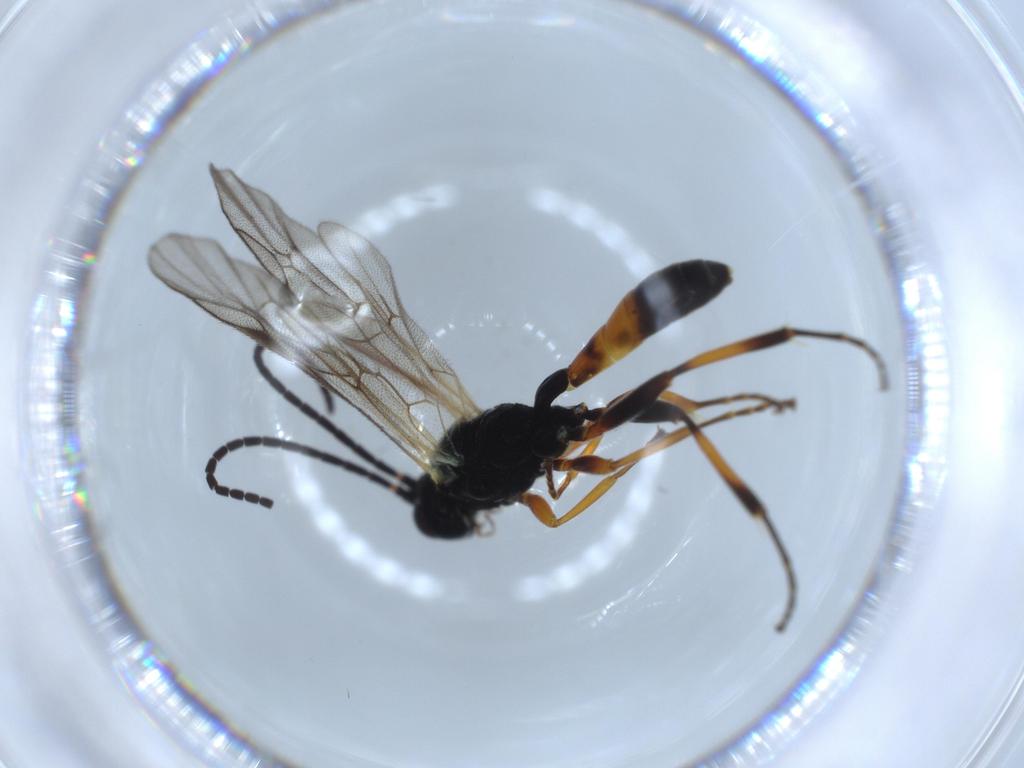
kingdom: Animalia
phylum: Arthropoda
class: Insecta
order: Hymenoptera
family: Ichneumonidae
